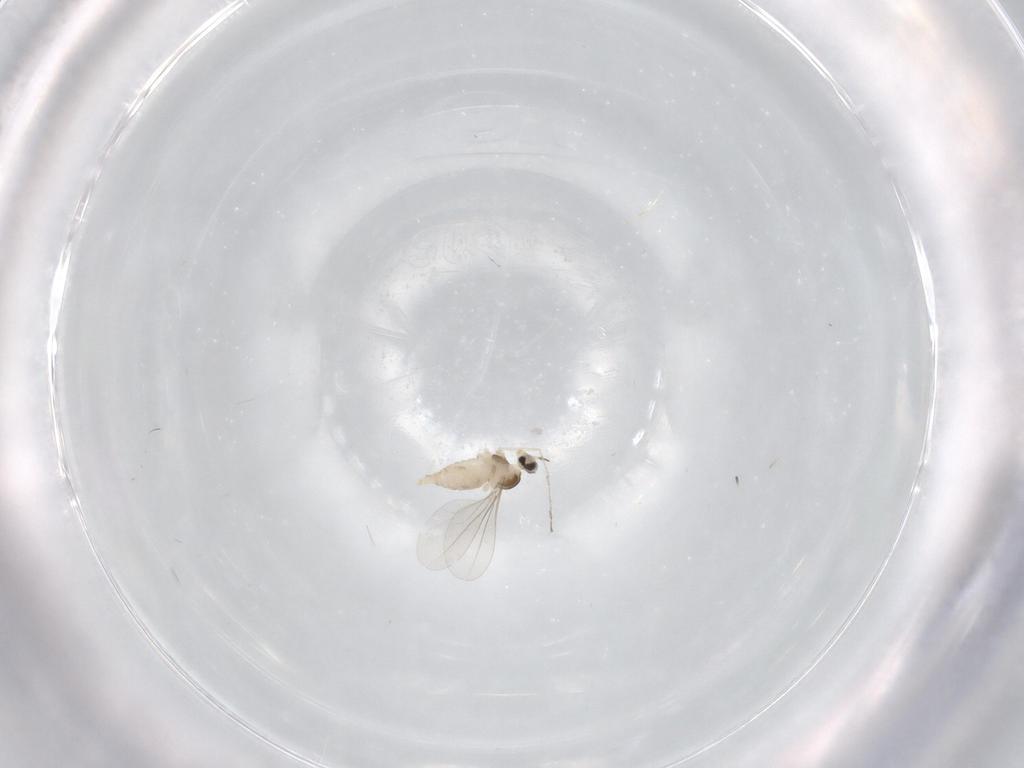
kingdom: Animalia
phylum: Arthropoda
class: Insecta
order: Diptera
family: Cecidomyiidae
